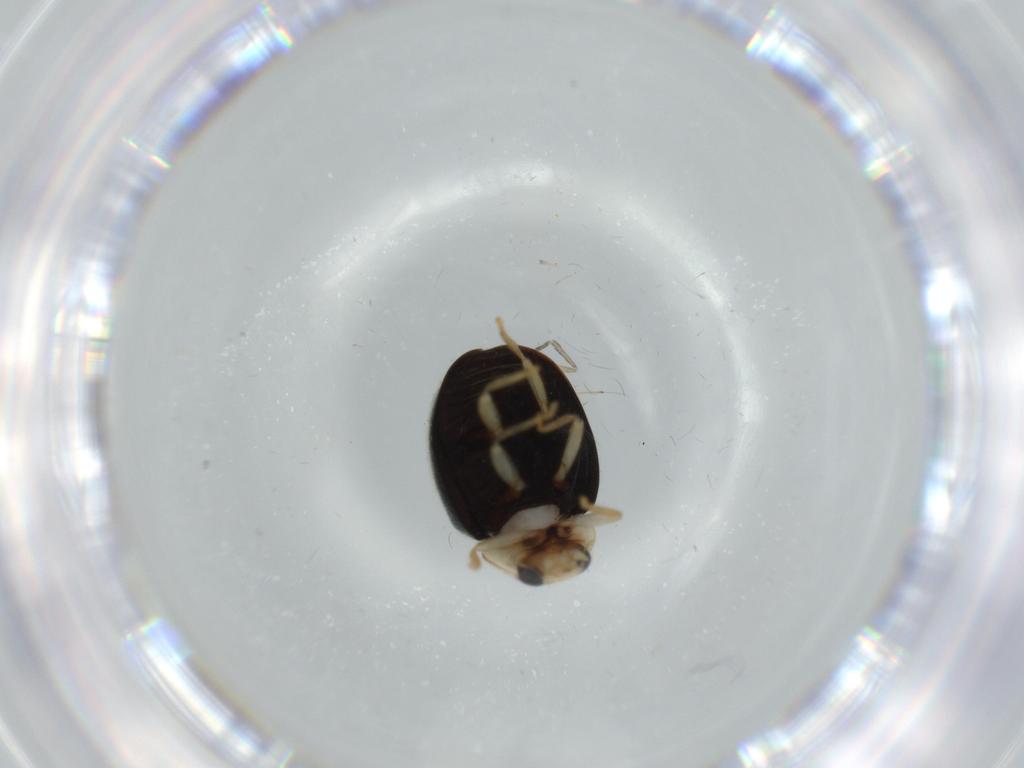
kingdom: Animalia
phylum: Arthropoda
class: Insecta
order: Coleoptera
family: Coccinellidae
